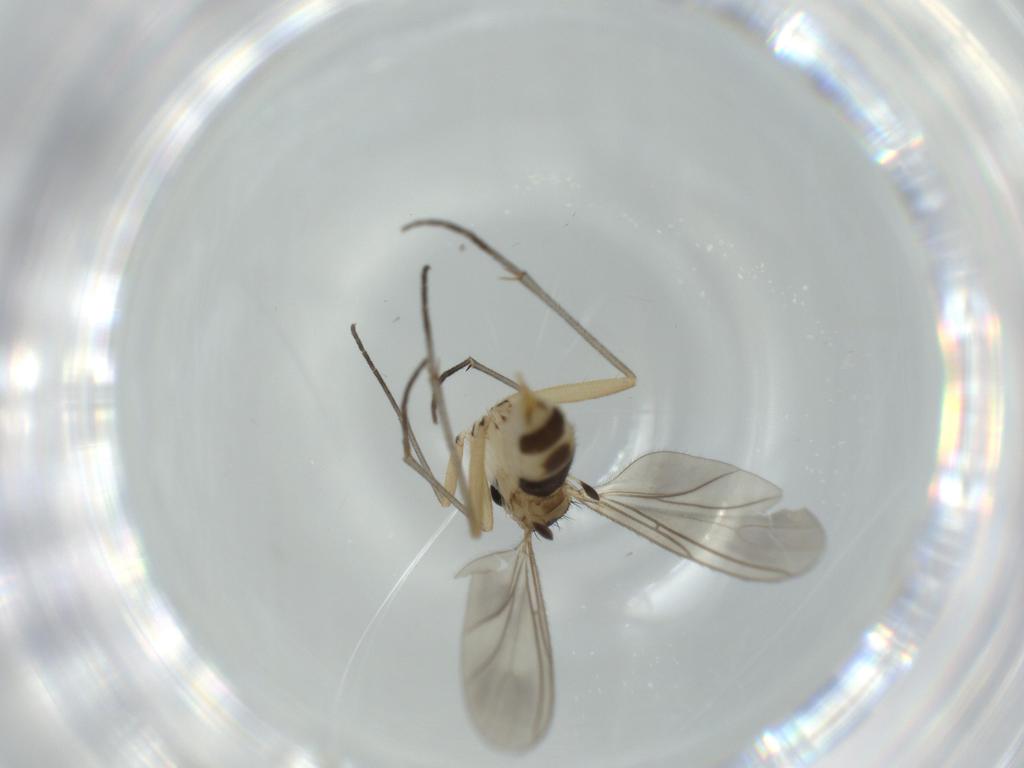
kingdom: Animalia
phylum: Arthropoda
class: Insecta
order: Diptera
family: Sciaridae
